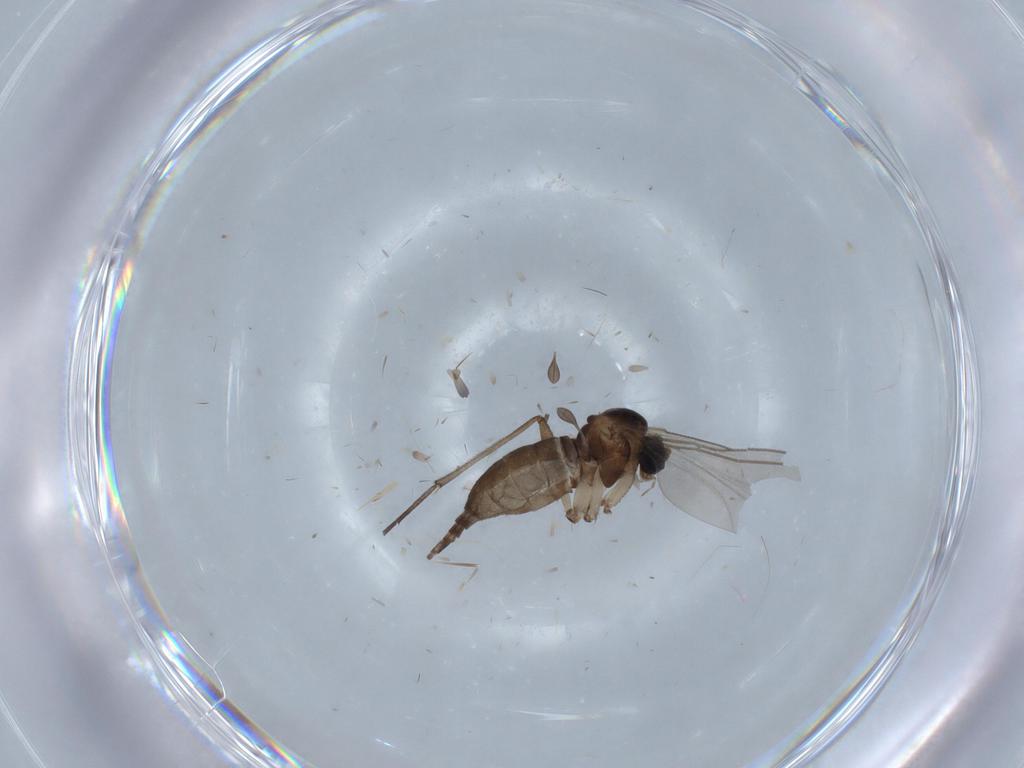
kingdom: Animalia
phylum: Arthropoda
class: Insecta
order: Diptera
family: Sciaridae
